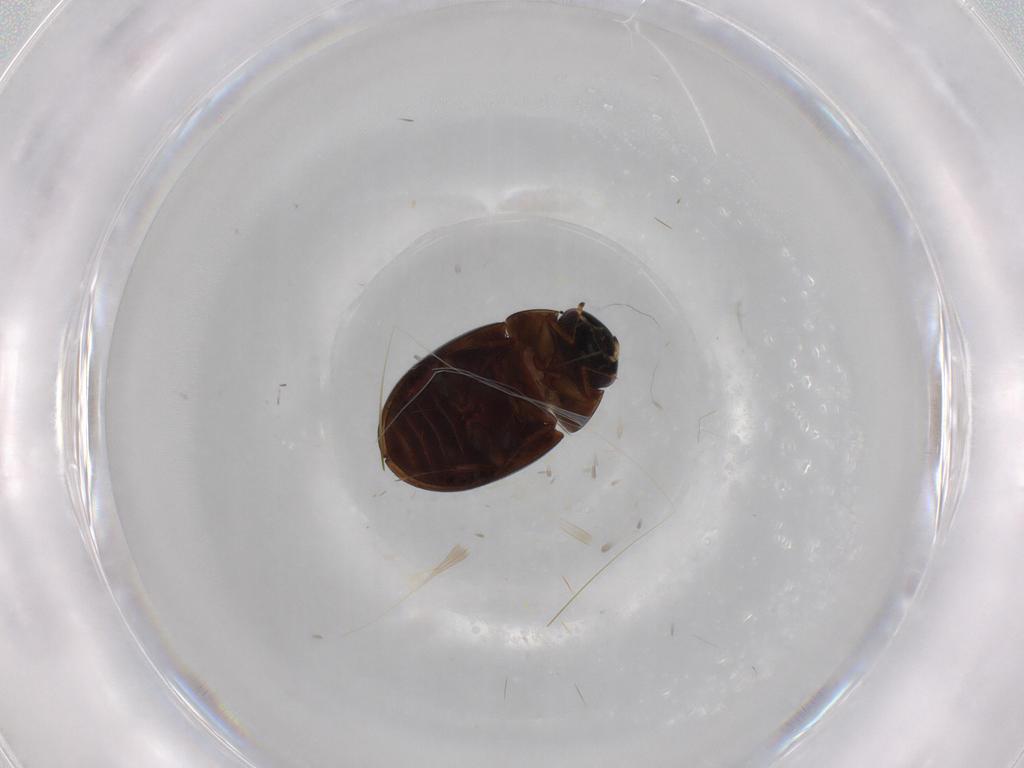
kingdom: Animalia
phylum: Arthropoda
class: Insecta
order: Coleoptera
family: Hydrophilidae
